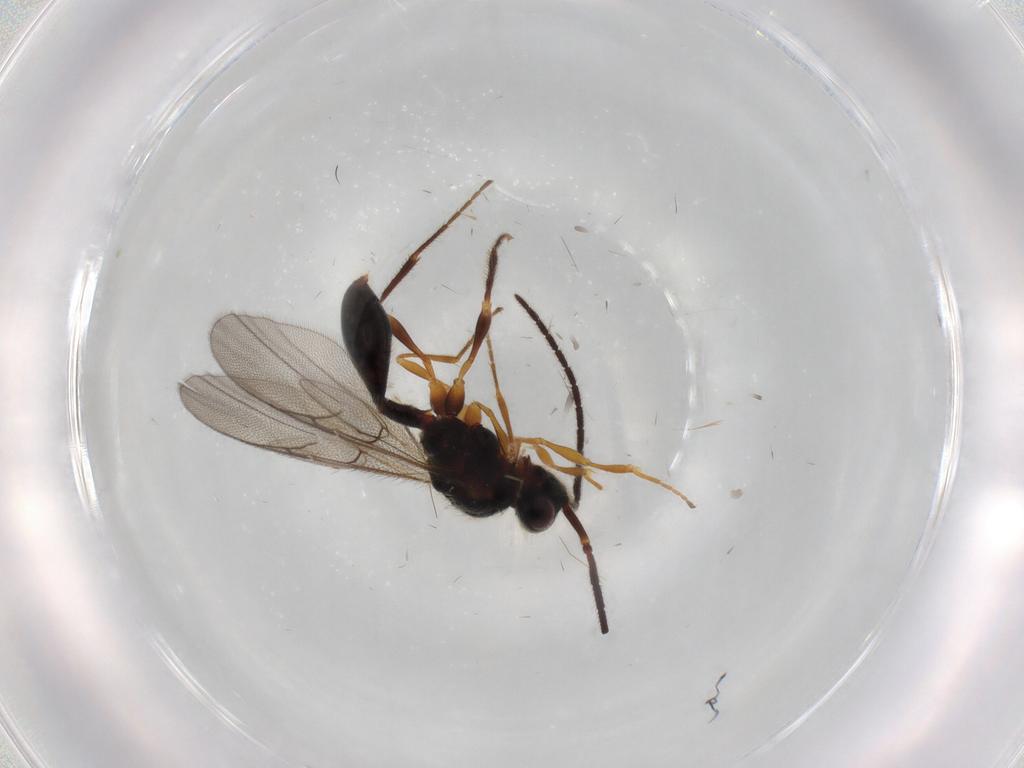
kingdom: Animalia
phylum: Arthropoda
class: Insecta
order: Hymenoptera
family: Diapriidae
